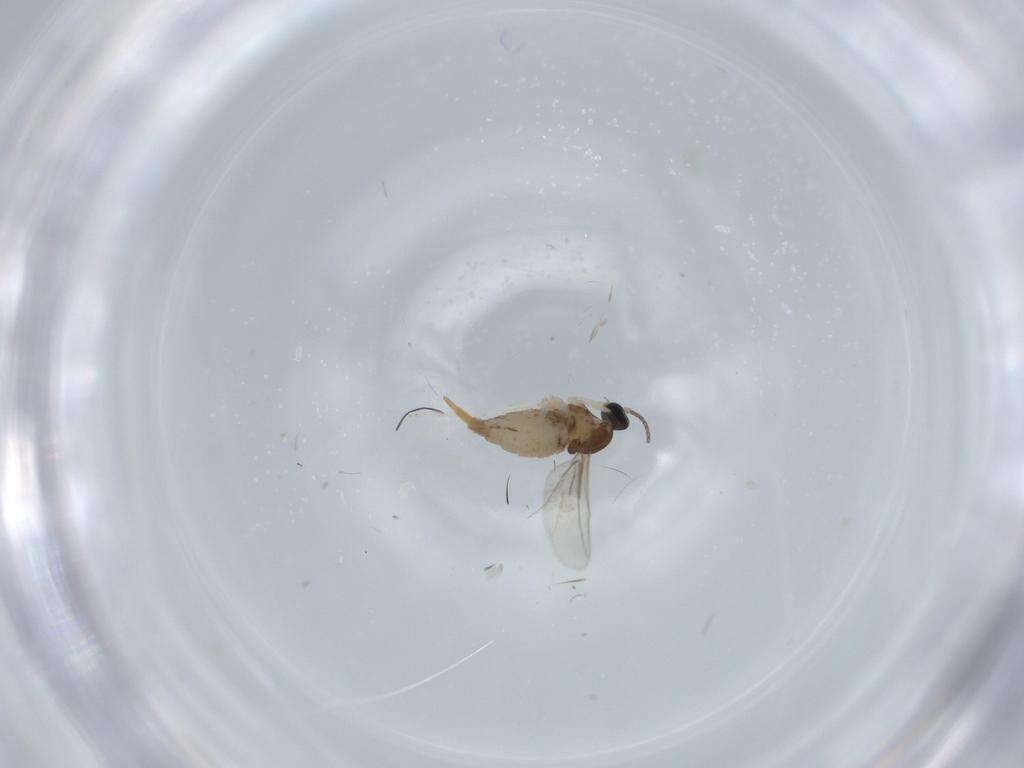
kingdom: Animalia
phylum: Arthropoda
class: Insecta
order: Diptera
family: Cecidomyiidae
